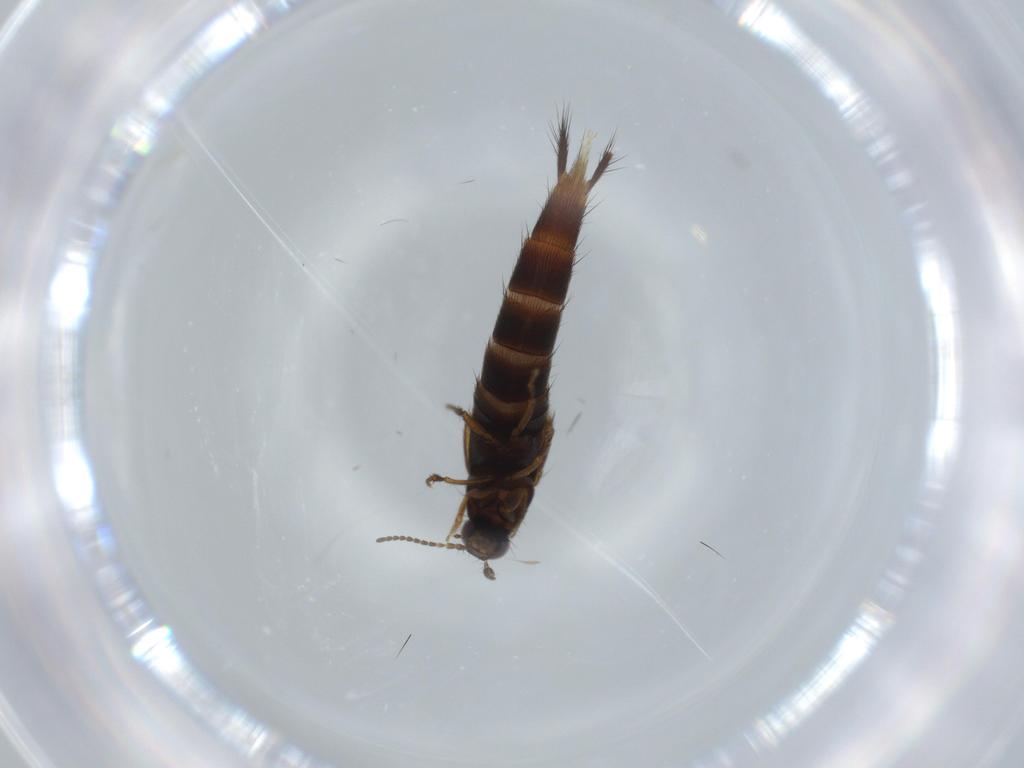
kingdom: Animalia
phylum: Arthropoda
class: Insecta
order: Coleoptera
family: Staphylinidae
